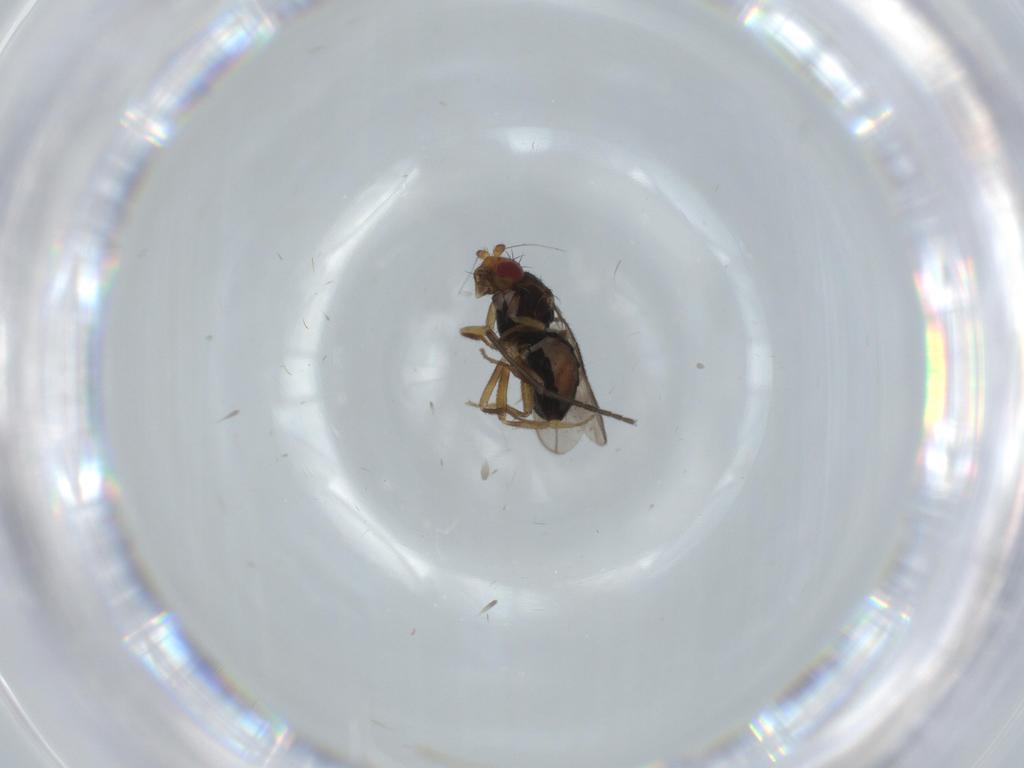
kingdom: Animalia
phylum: Arthropoda
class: Insecta
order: Diptera
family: Sphaeroceridae
